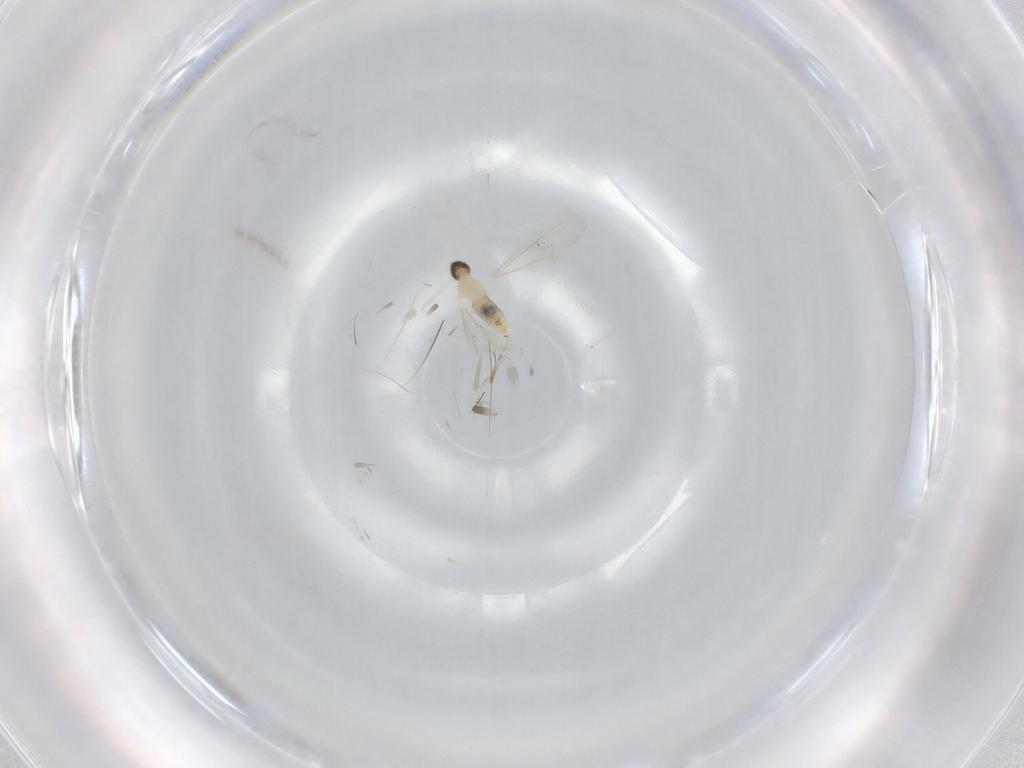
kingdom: Animalia
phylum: Arthropoda
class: Insecta
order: Diptera
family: Cecidomyiidae
